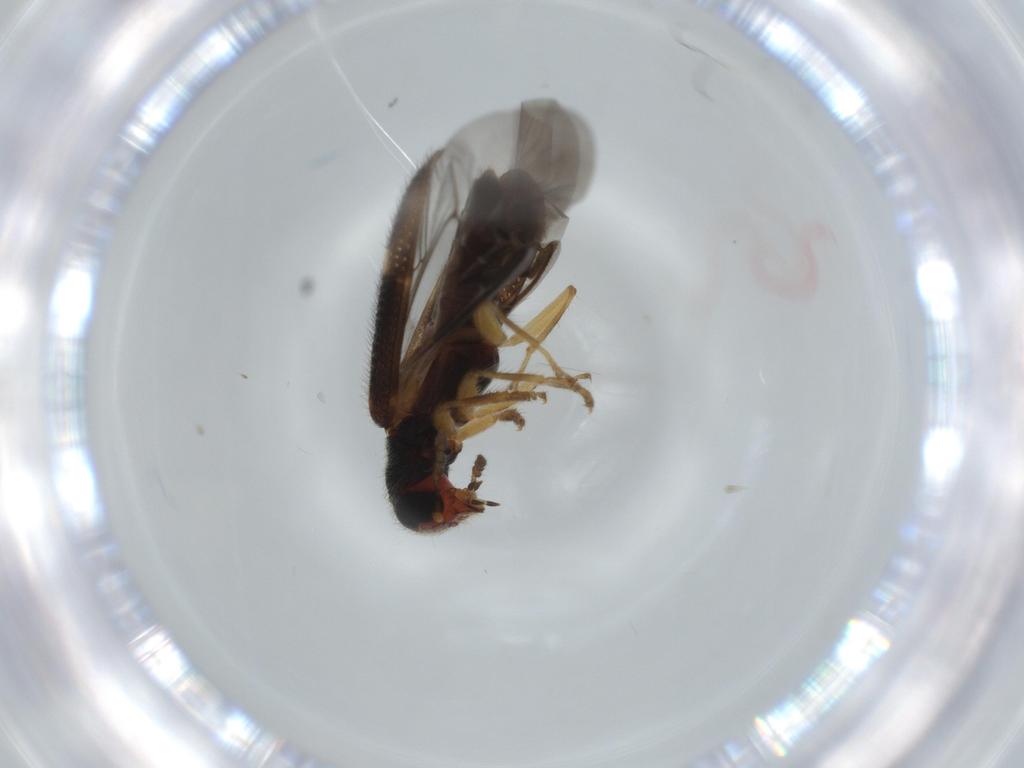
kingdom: Animalia
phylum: Arthropoda
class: Insecta
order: Coleoptera
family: Cleridae
